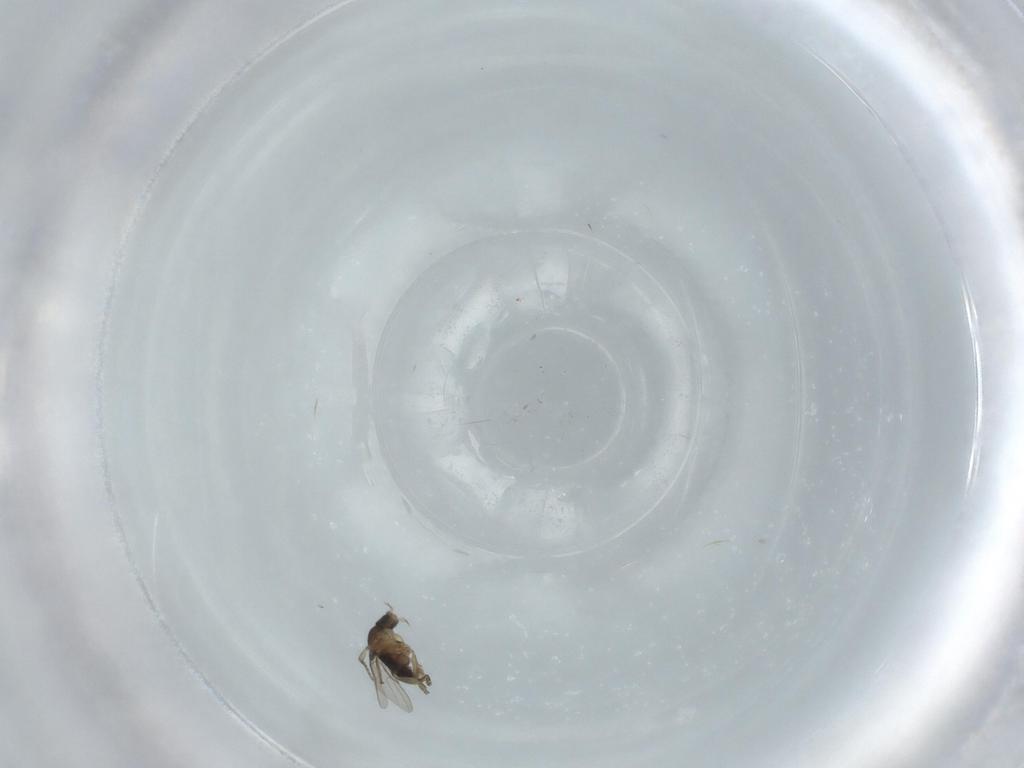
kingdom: Animalia
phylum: Arthropoda
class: Insecta
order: Diptera
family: Phoridae
